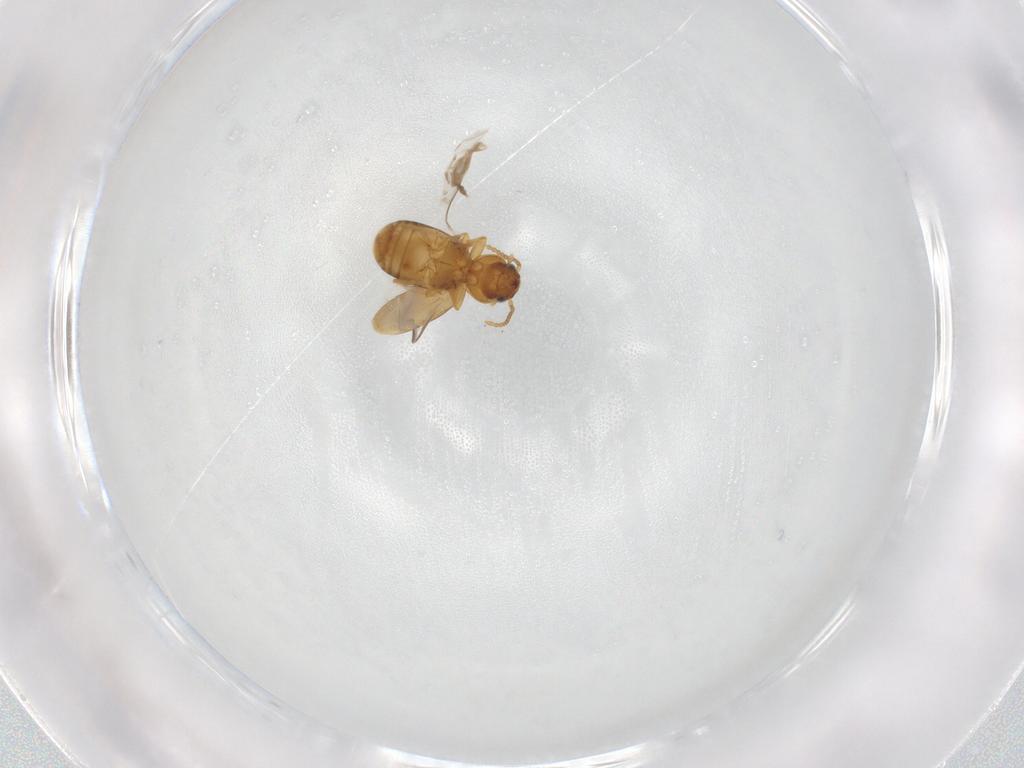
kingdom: Animalia
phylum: Arthropoda
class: Insecta
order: Coleoptera
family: Carabidae
